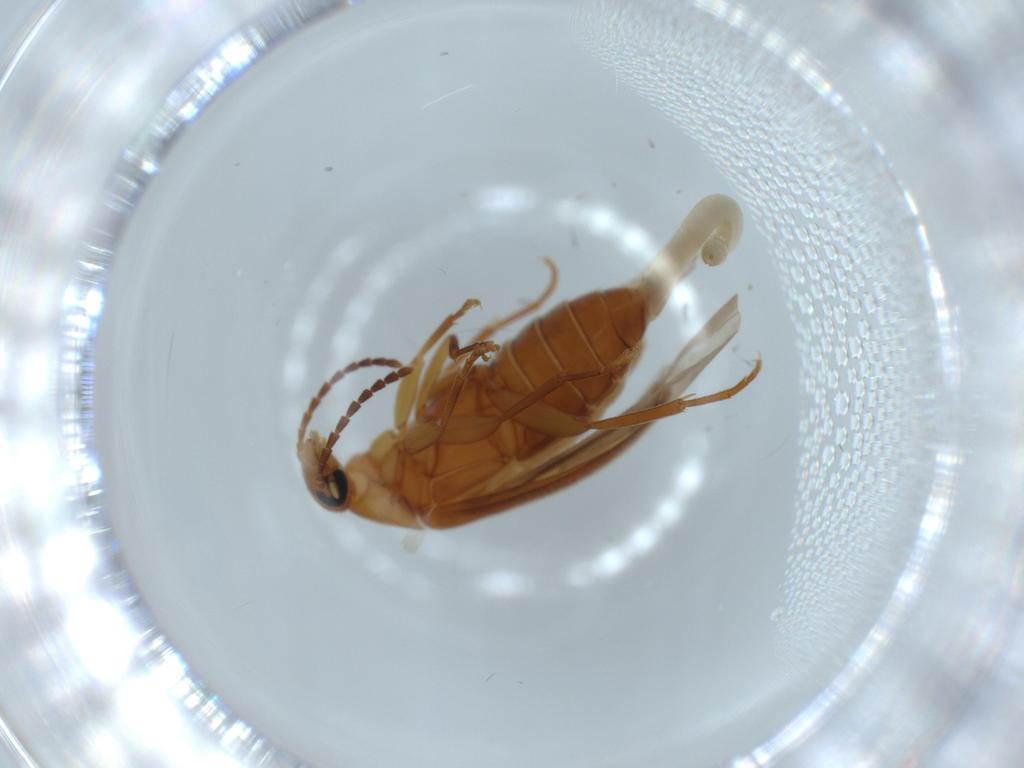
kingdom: Animalia
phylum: Arthropoda
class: Insecta
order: Coleoptera
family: Scraptiidae
